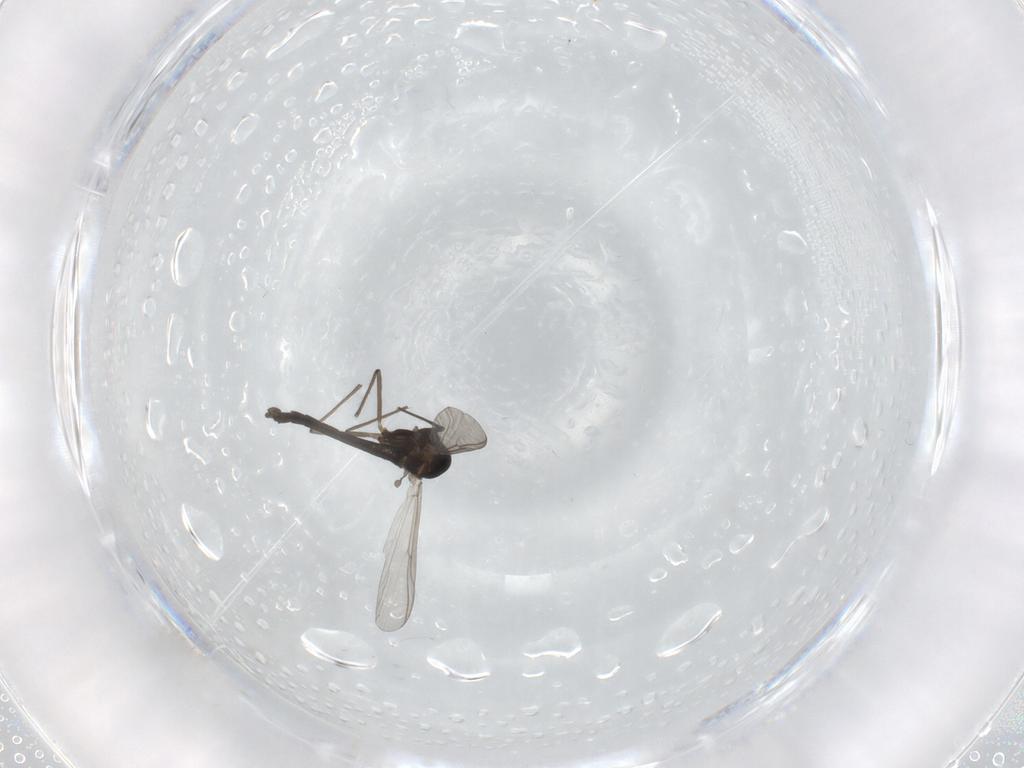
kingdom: Animalia
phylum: Arthropoda
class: Insecta
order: Diptera
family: Chironomidae
